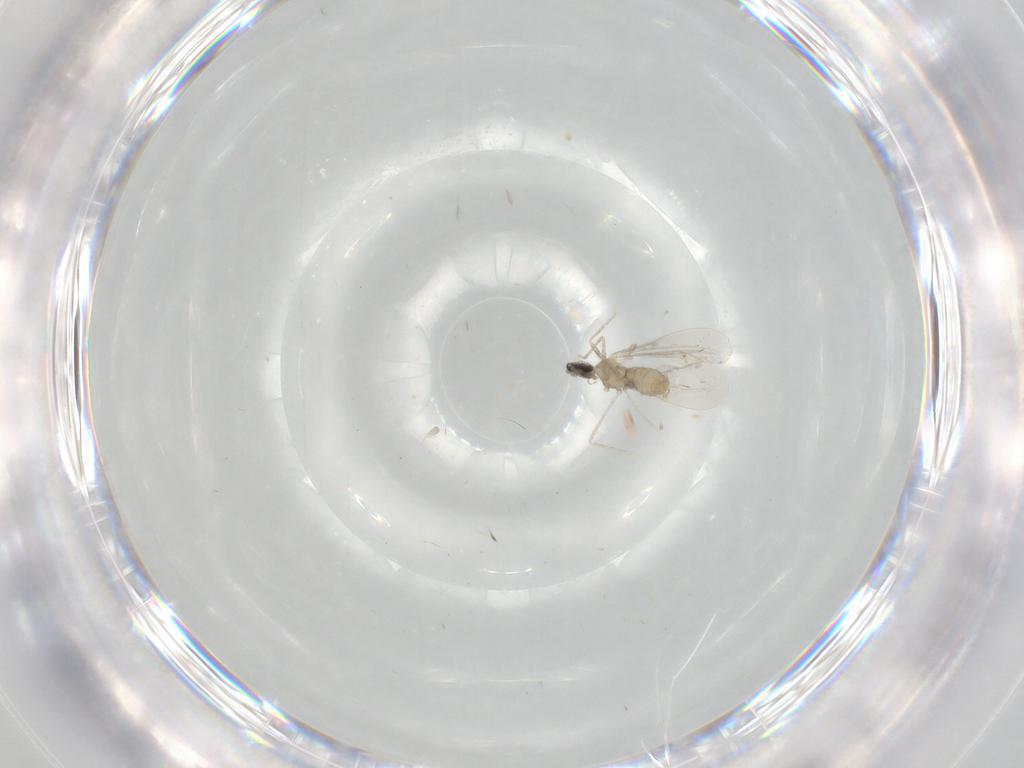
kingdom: Animalia
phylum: Arthropoda
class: Insecta
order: Diptera
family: Cecidomyiidae
